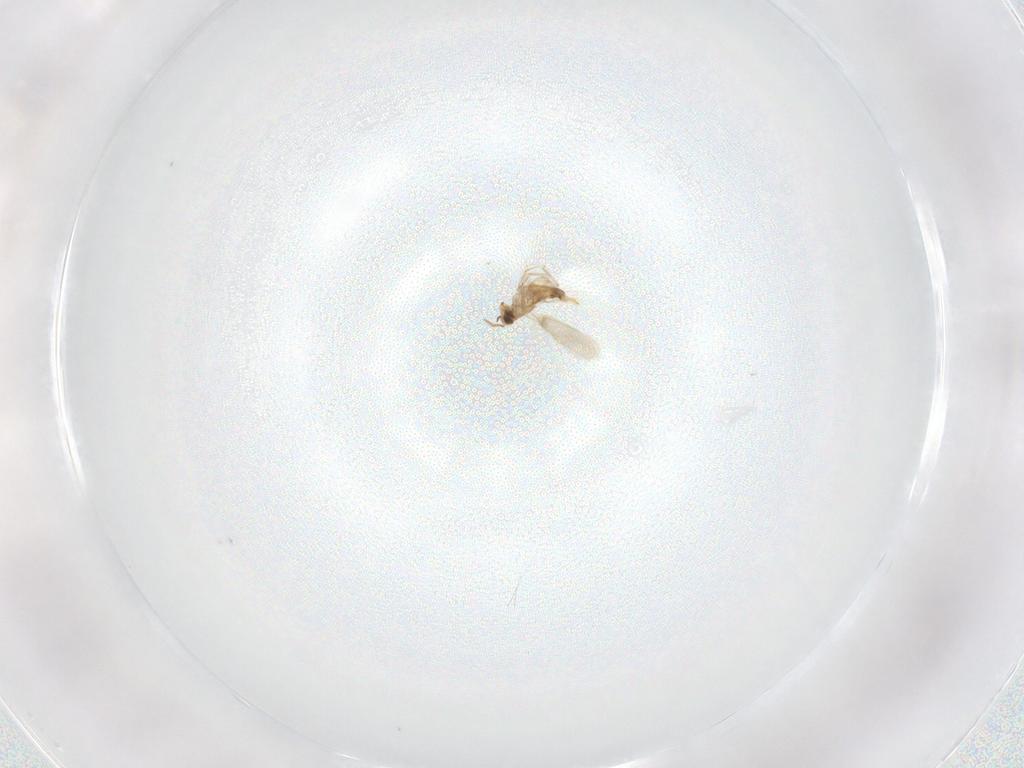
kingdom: Animalia
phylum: Arthropoda
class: Insecta
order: Hymenoptera
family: Aphelinidae
